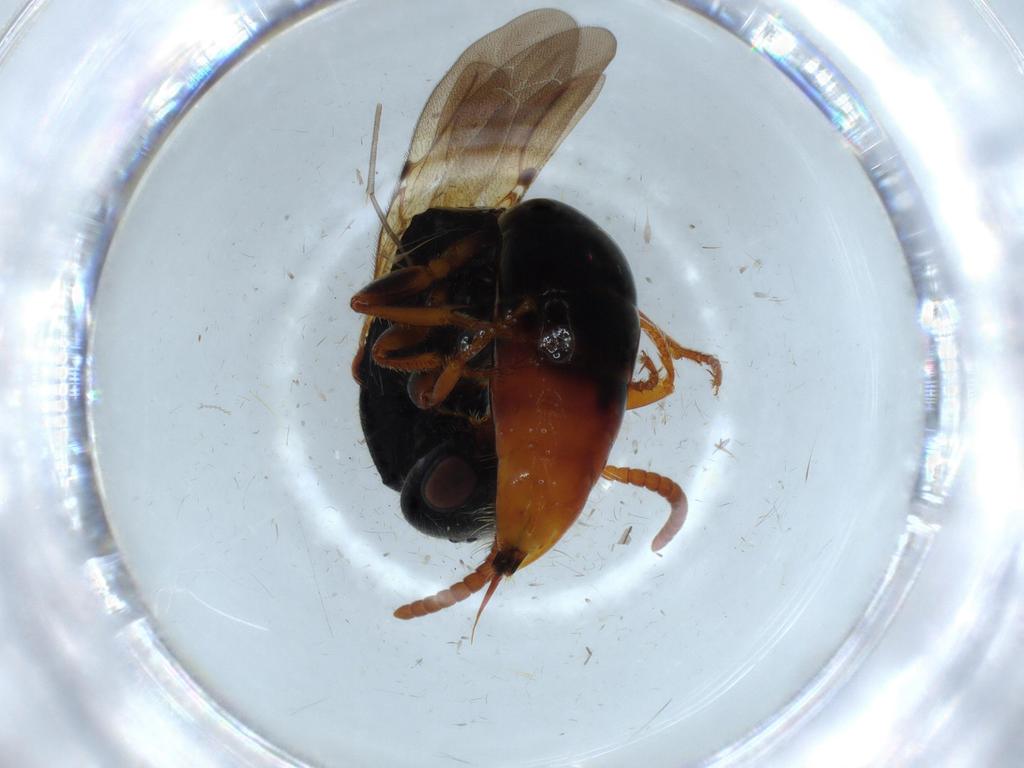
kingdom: Animalia
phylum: Arthropoda
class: Insecta
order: Hymenoptera
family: Bethylidae
